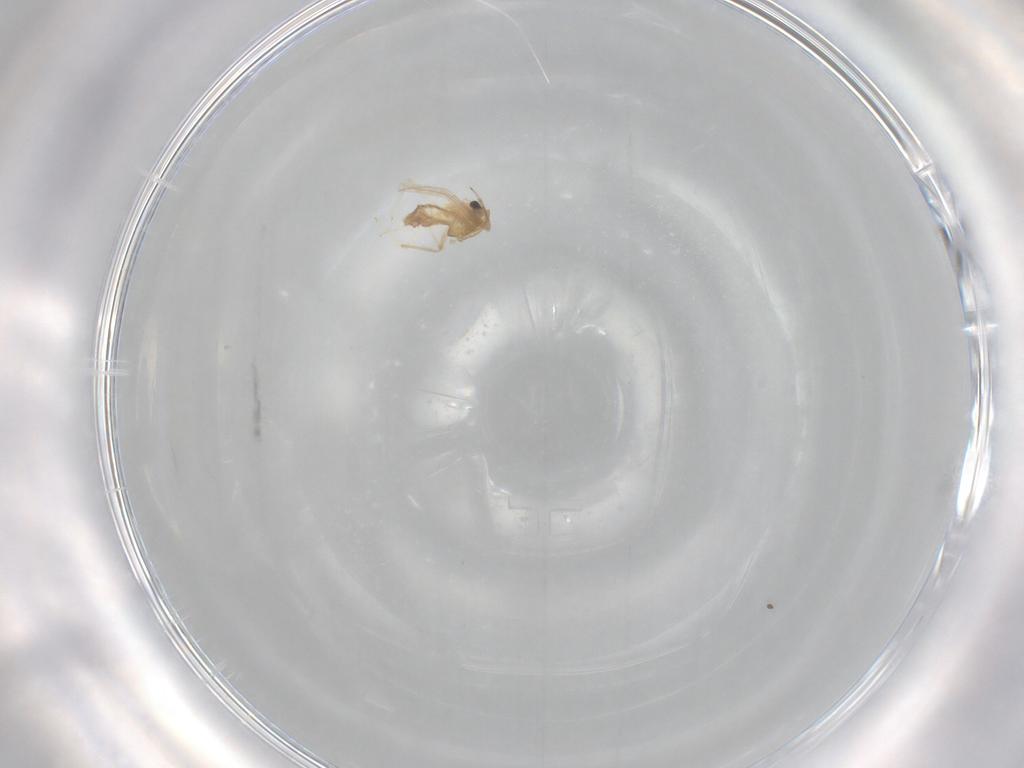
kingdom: Animalia
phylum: Arthropoda
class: Insecta
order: Diptera
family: Chironomidae
